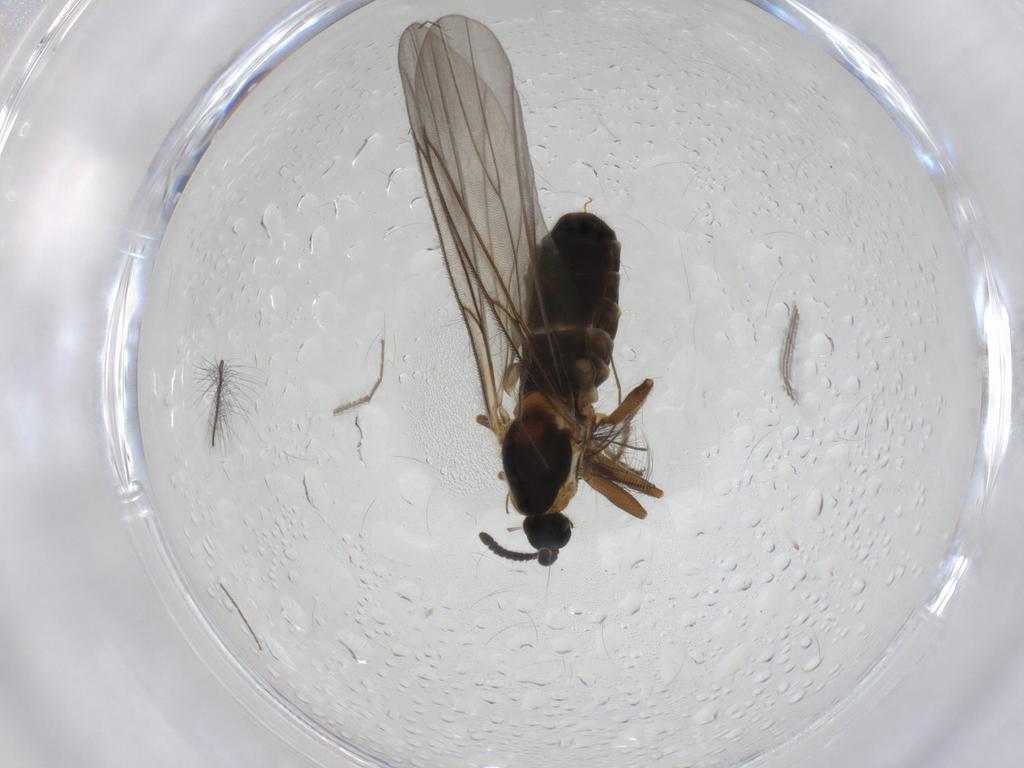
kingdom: Animalia
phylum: Arthropoda
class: Insecta
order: Diptera
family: Scatopsidae
